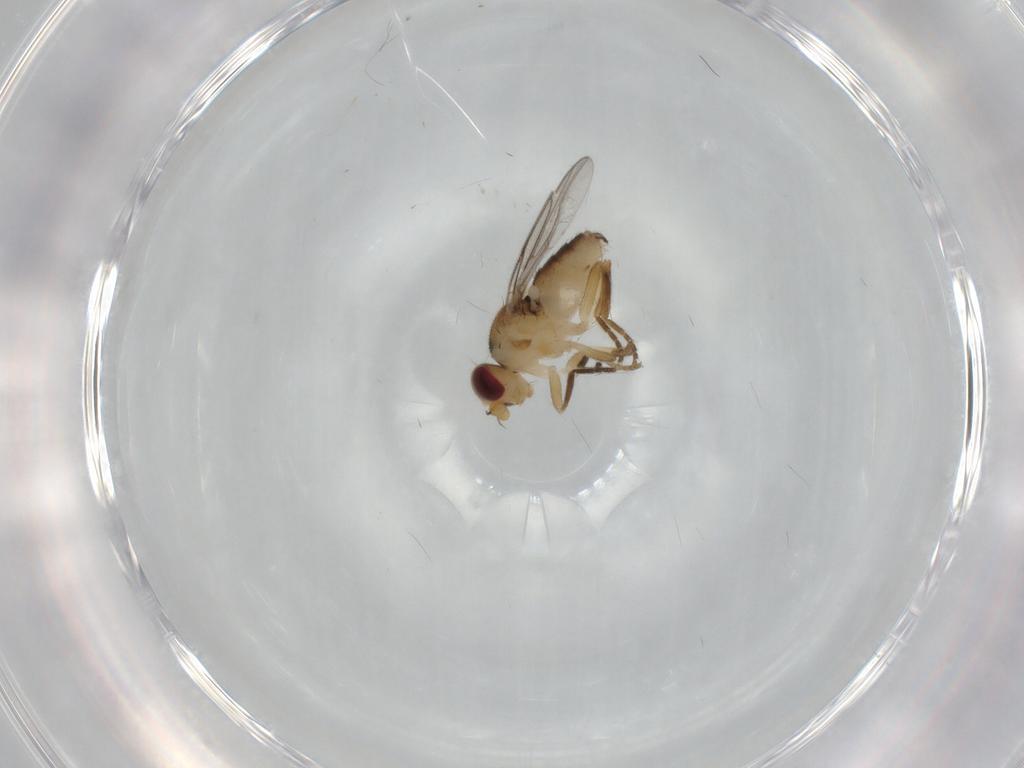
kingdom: Animalia
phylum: Arthropoda
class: Insecta
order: Diptera
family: Chloropidae
